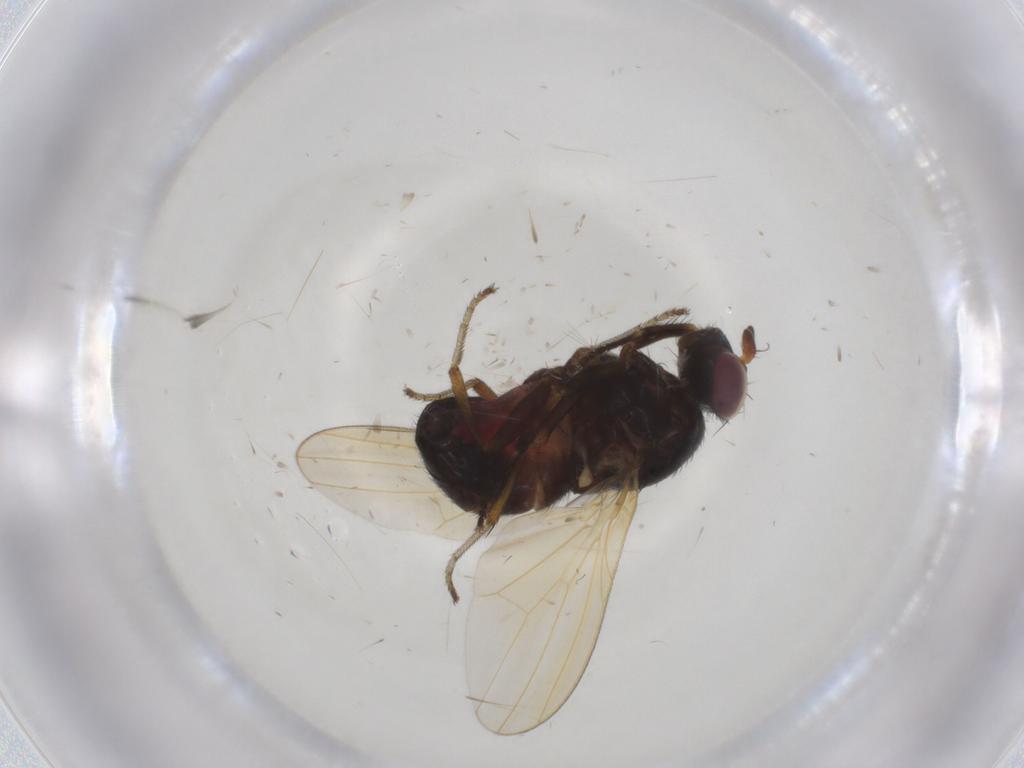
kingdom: Animalia
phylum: Arthropoda
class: Insecta
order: Diptera
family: Lauxaniidae
